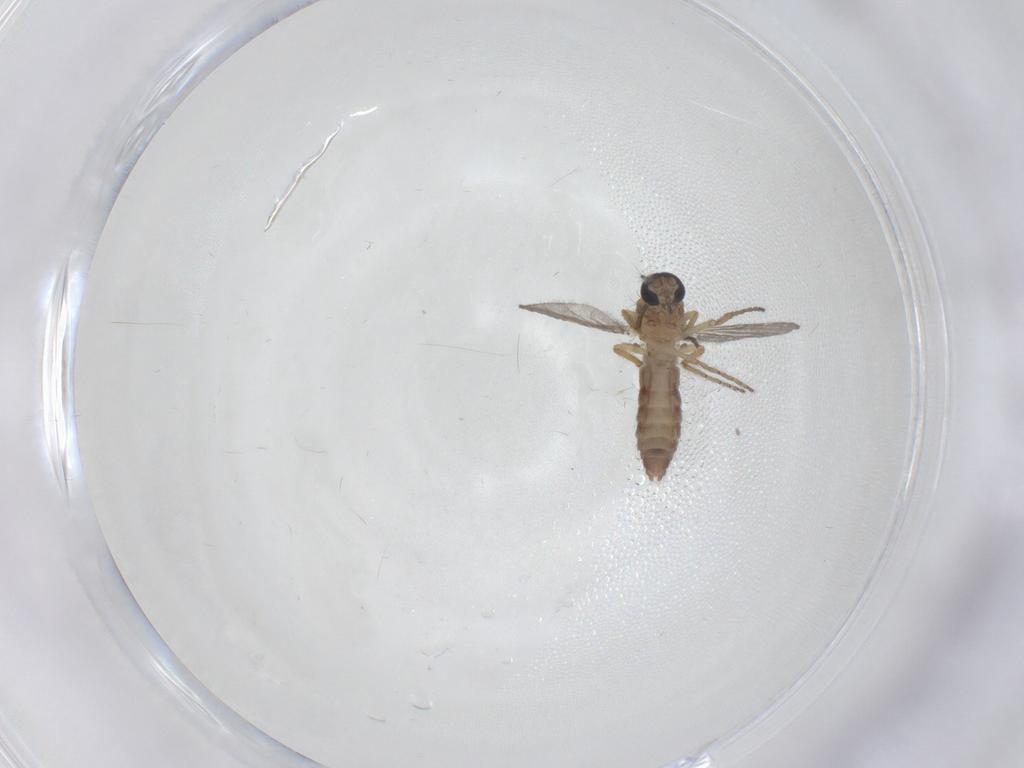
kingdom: Animalia
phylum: Arthropoda
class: Insecta
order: Diptera
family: Ceratopogonidae
